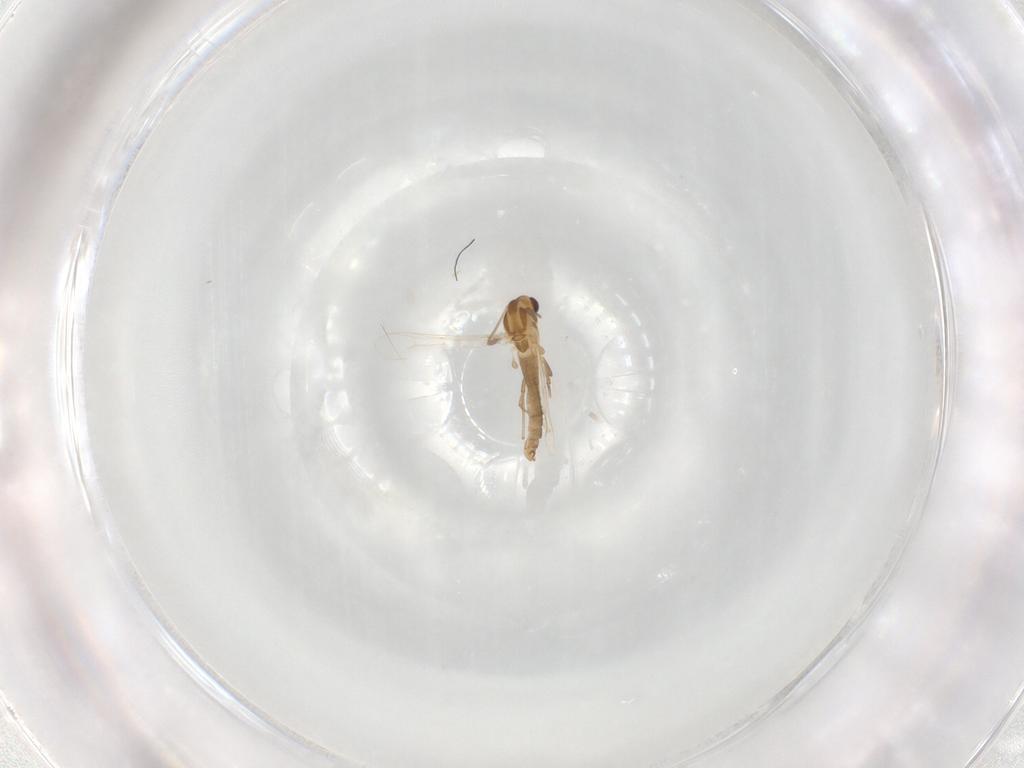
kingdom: Animalia
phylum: Arthropoda
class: Insecta
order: Diptera
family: Chironomidae
